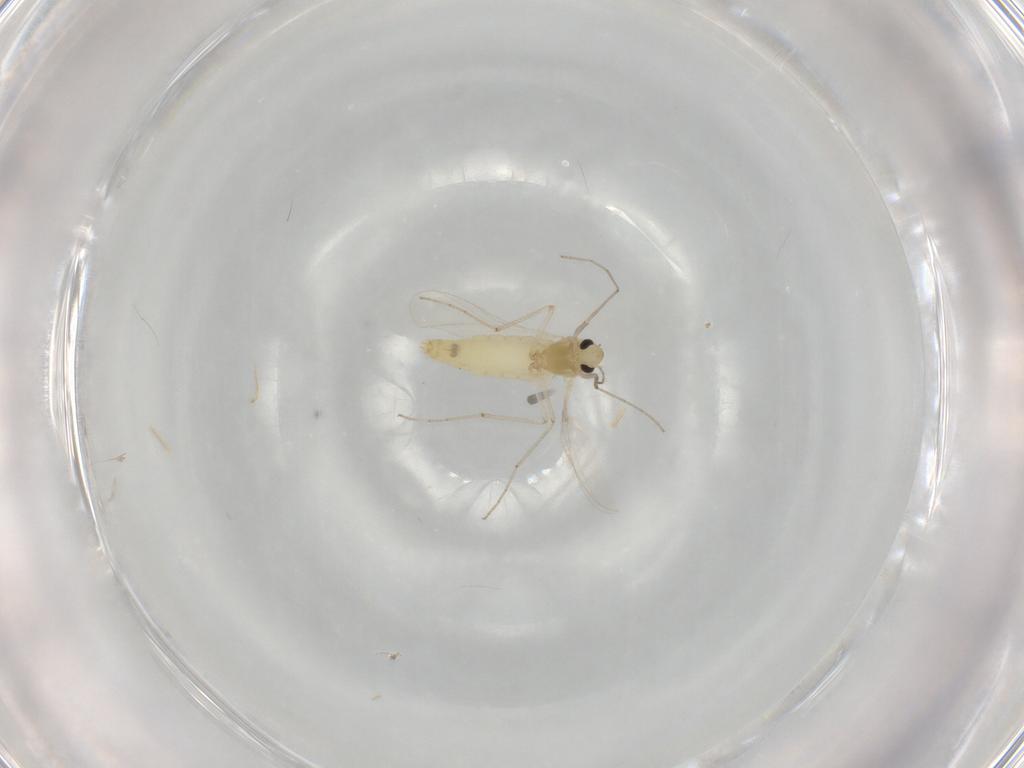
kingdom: Animalia
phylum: Arthropoda
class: Insecta
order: Diptera
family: Chironomidae
